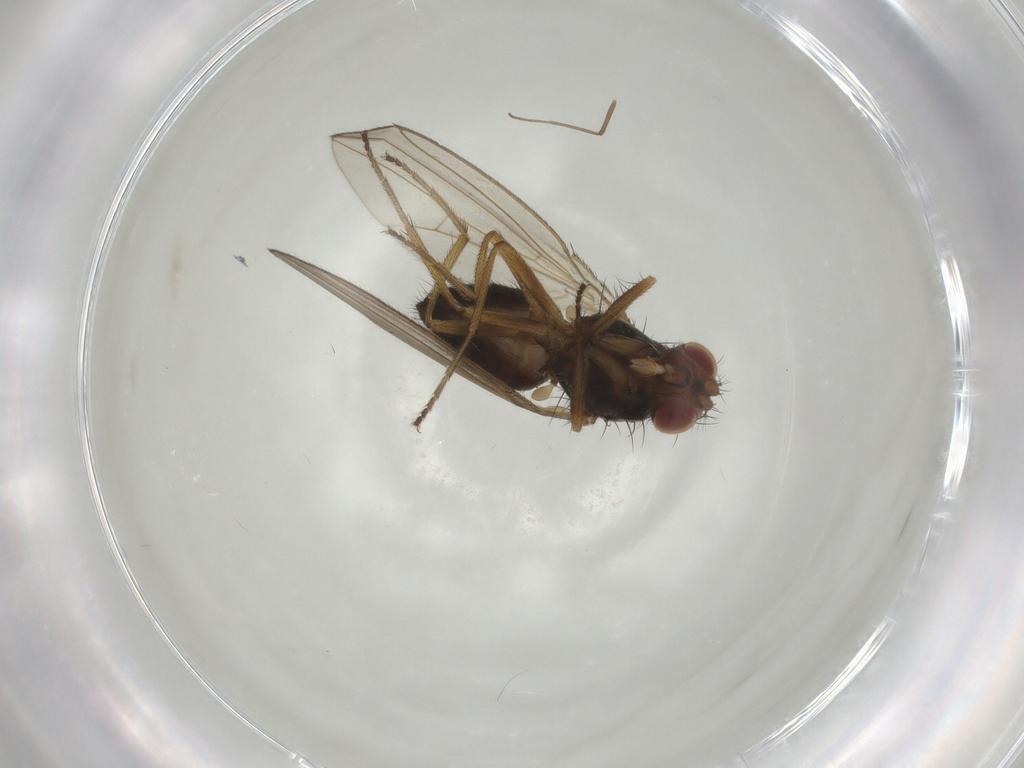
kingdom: Animalia
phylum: Arthropoda
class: Insecta
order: Diptera
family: Drosophilidae
